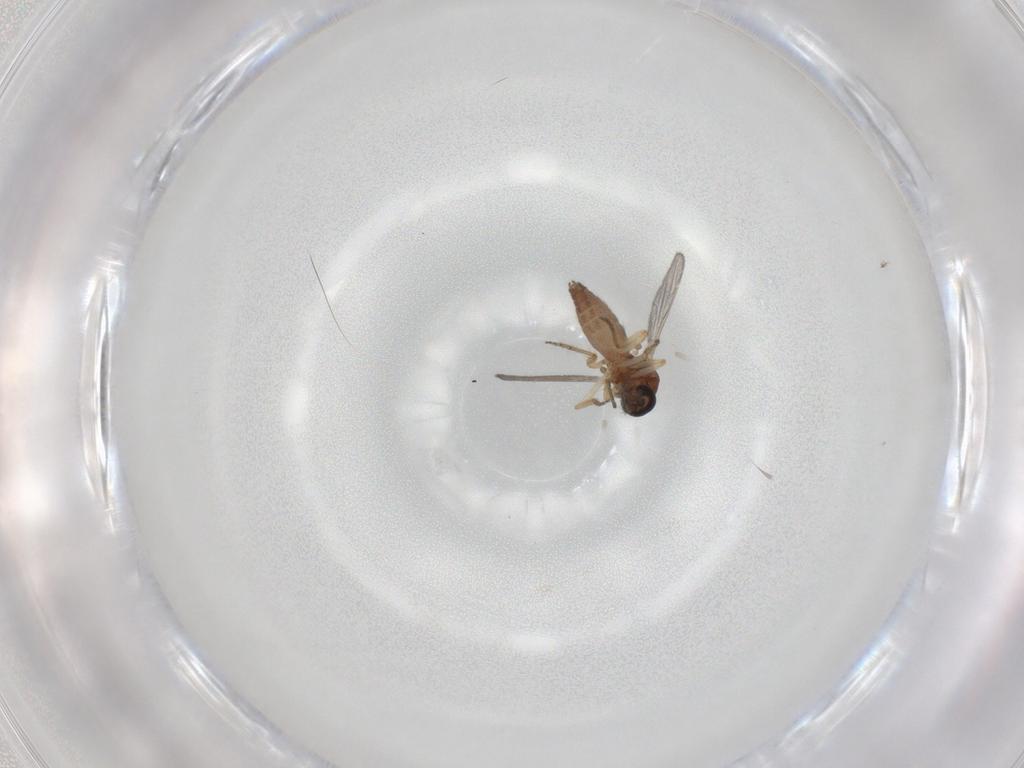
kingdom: Animalia
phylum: Arthropoda
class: Insecta
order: Diptera
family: Ceratopogonidae
